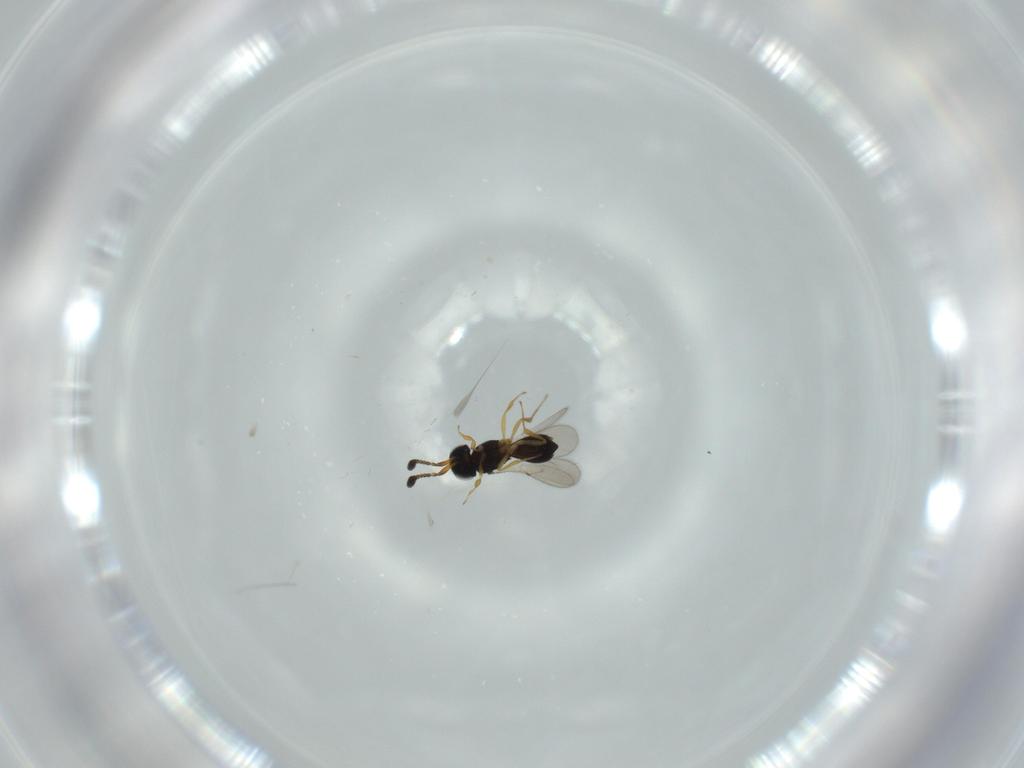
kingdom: Animalia
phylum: Arthropoda
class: Insecta
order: Hymenoptera
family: Scelionidae
